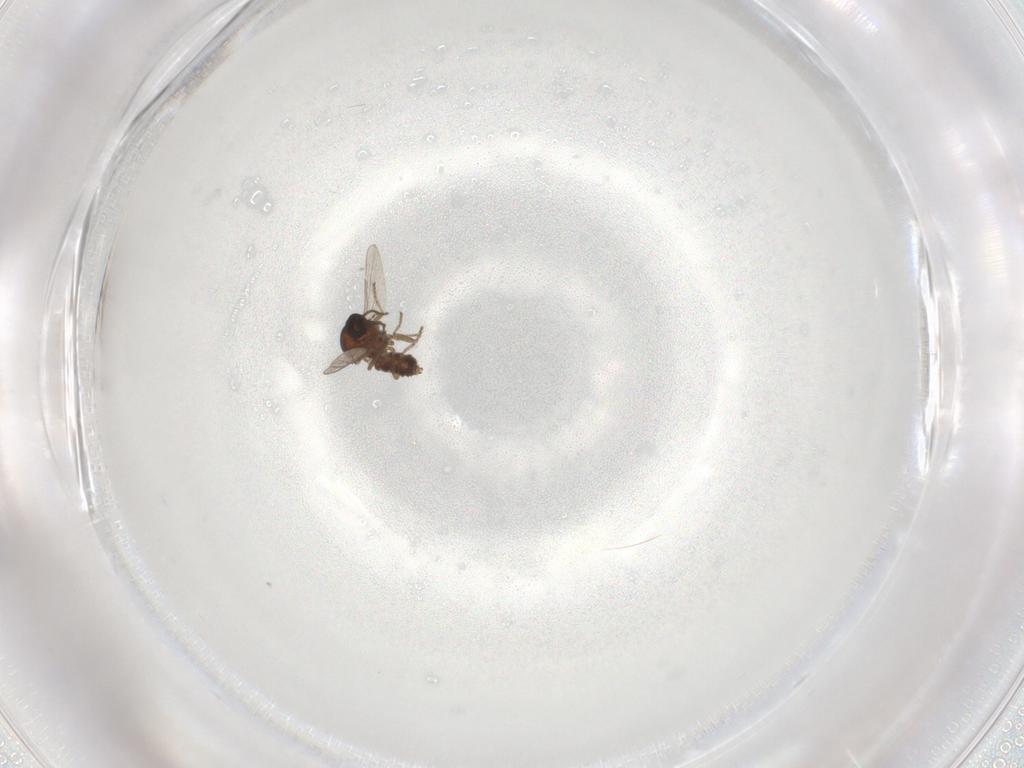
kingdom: Animalia
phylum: Arthropoda
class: Insecta
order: Diptera
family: Ceratopogonidae
